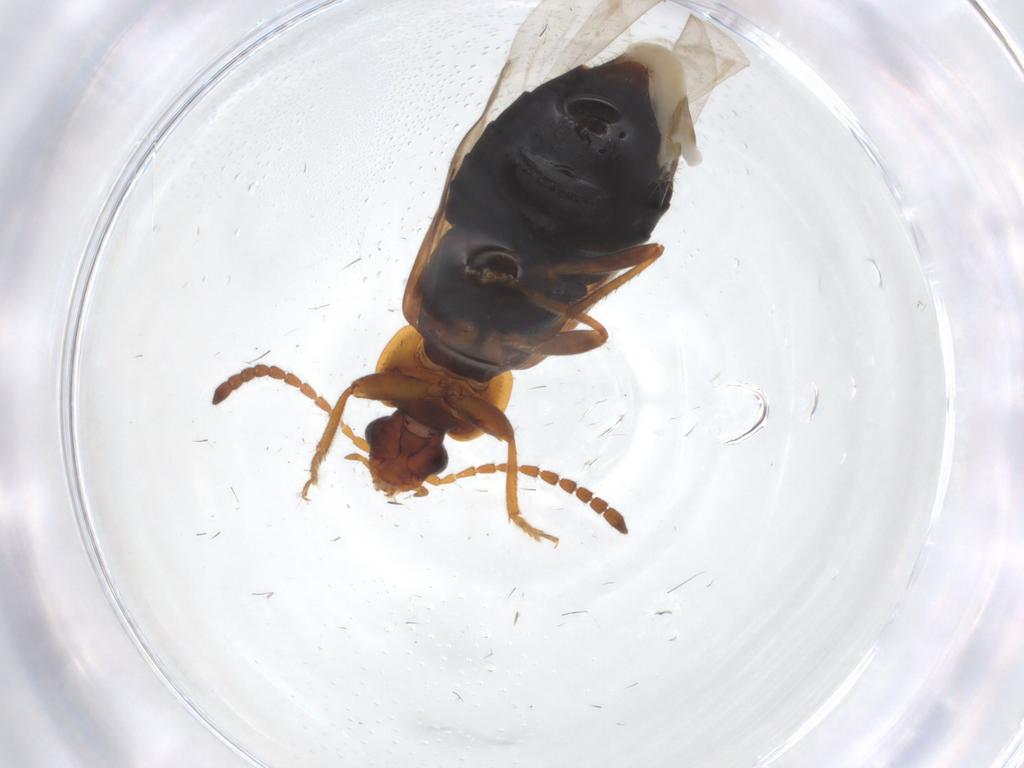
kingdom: Animalia
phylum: Arthropoda
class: Insecta
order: Coleoptera
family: Staphylinidae
